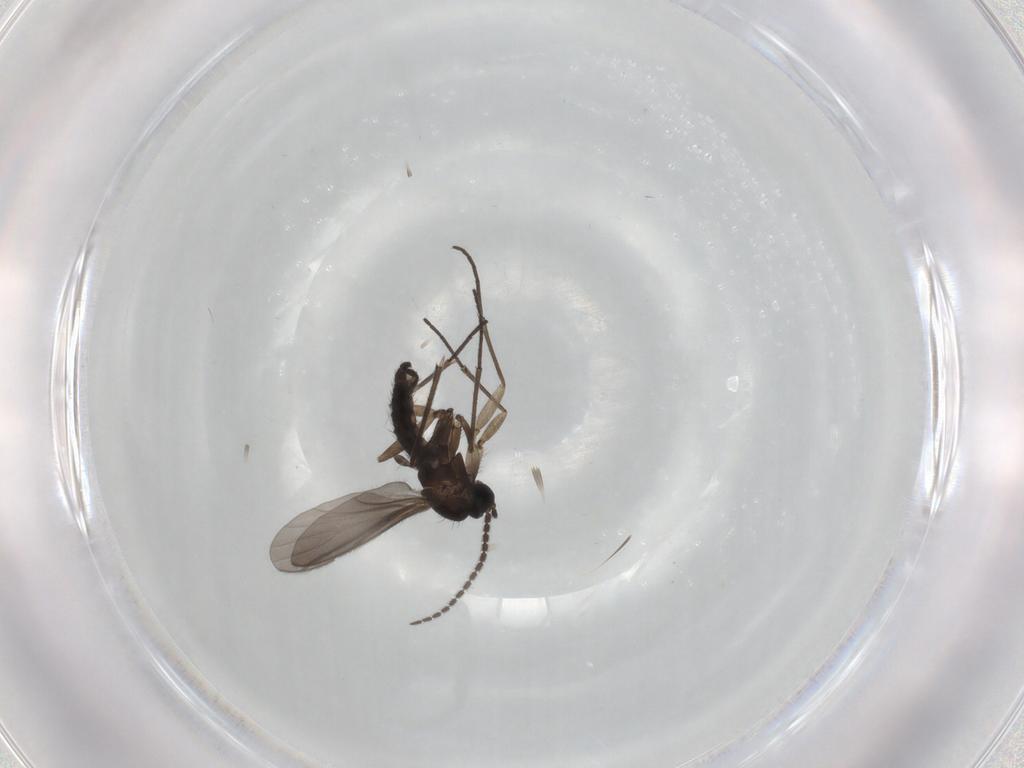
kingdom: Animalia
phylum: Arthropoda
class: Insecta
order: Diptera
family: Sciaridae
